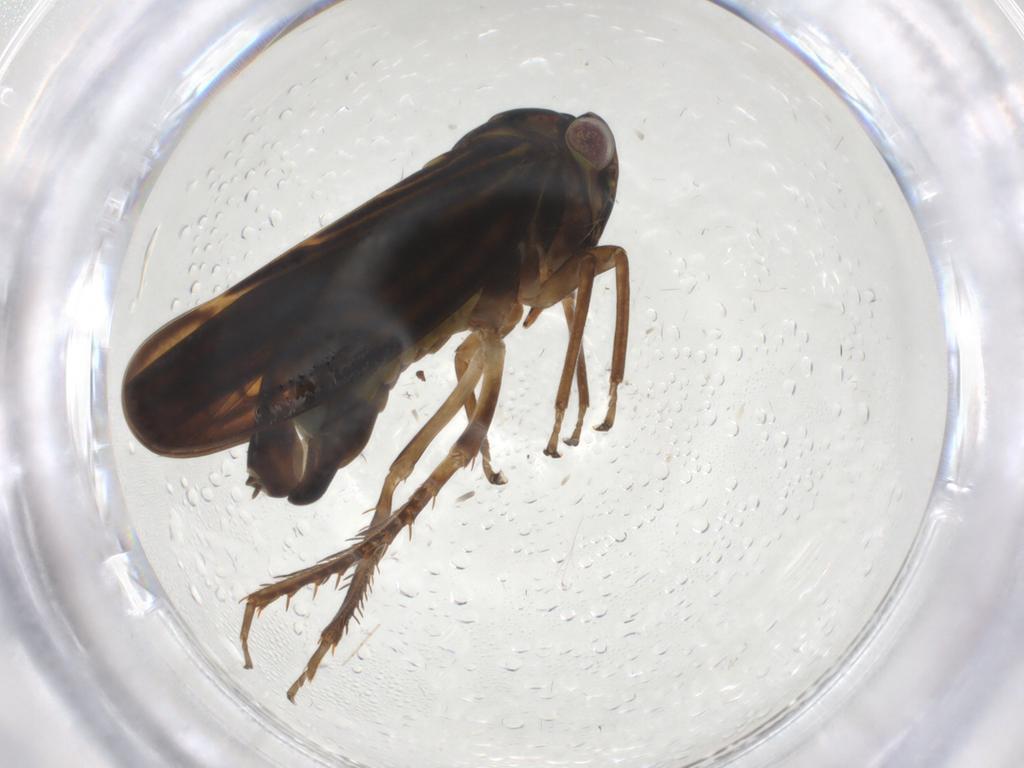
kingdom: Animalia
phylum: Arthropoda
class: Insecta
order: Hemiptera
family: Cicadellidae
